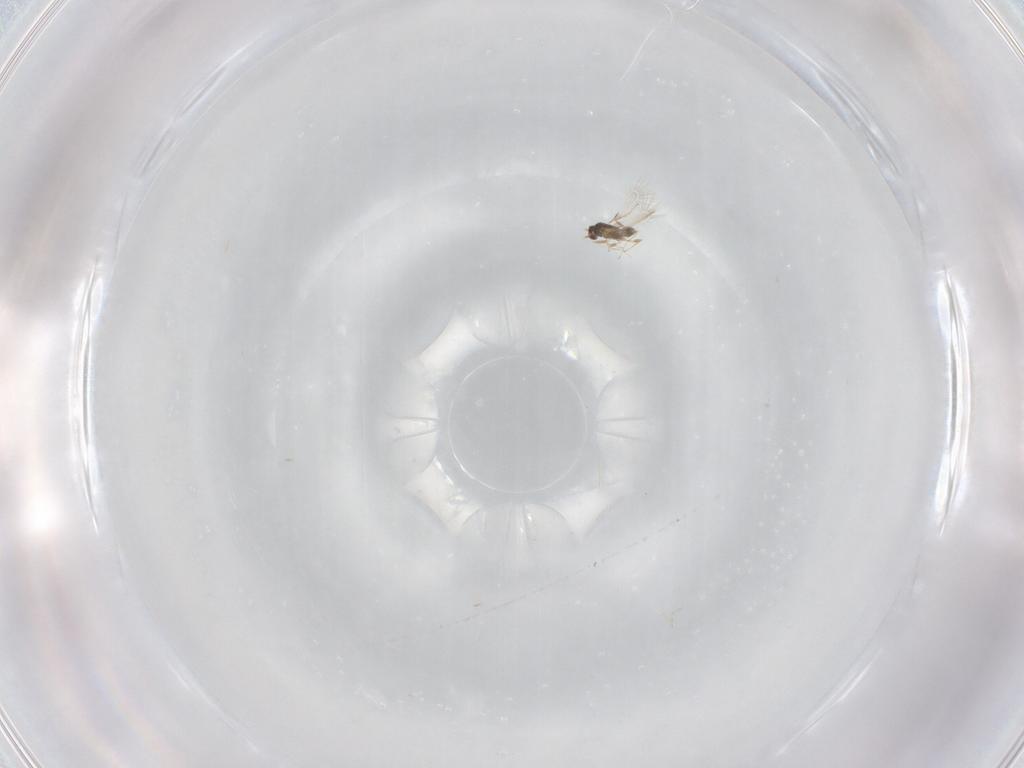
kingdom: Animalia
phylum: Arthropoda
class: Insecta
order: Hymenoptera
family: Mymaridae
